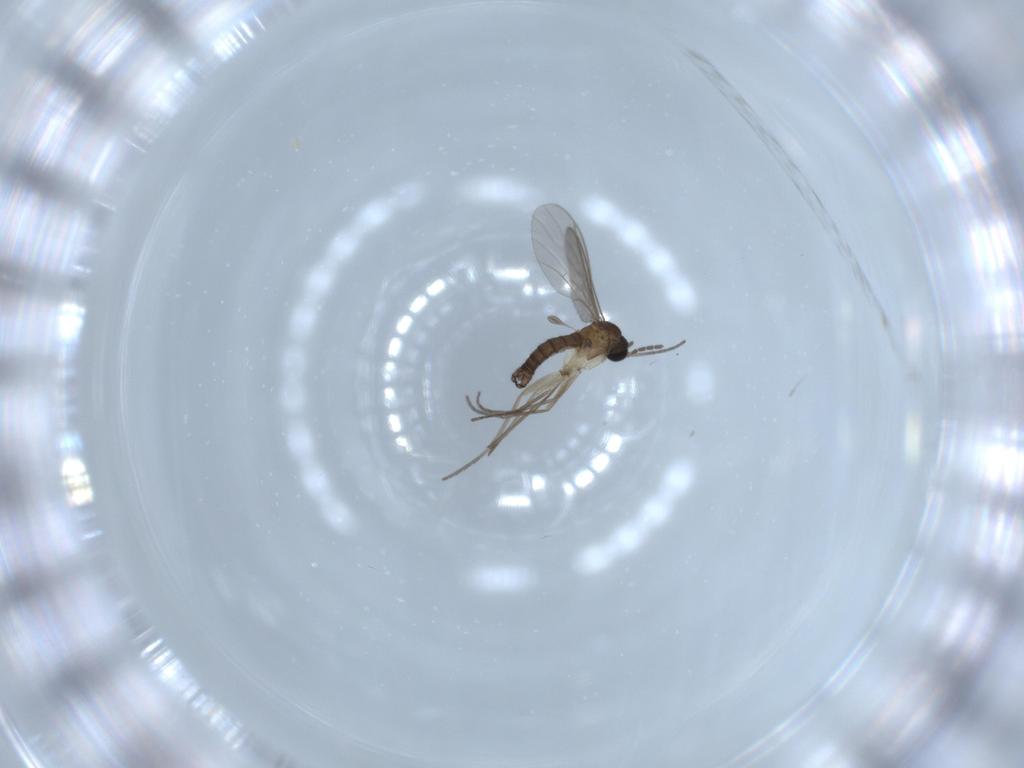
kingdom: Animalia
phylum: Arthropoda
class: Insecta
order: Diptera
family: Sciaridae
